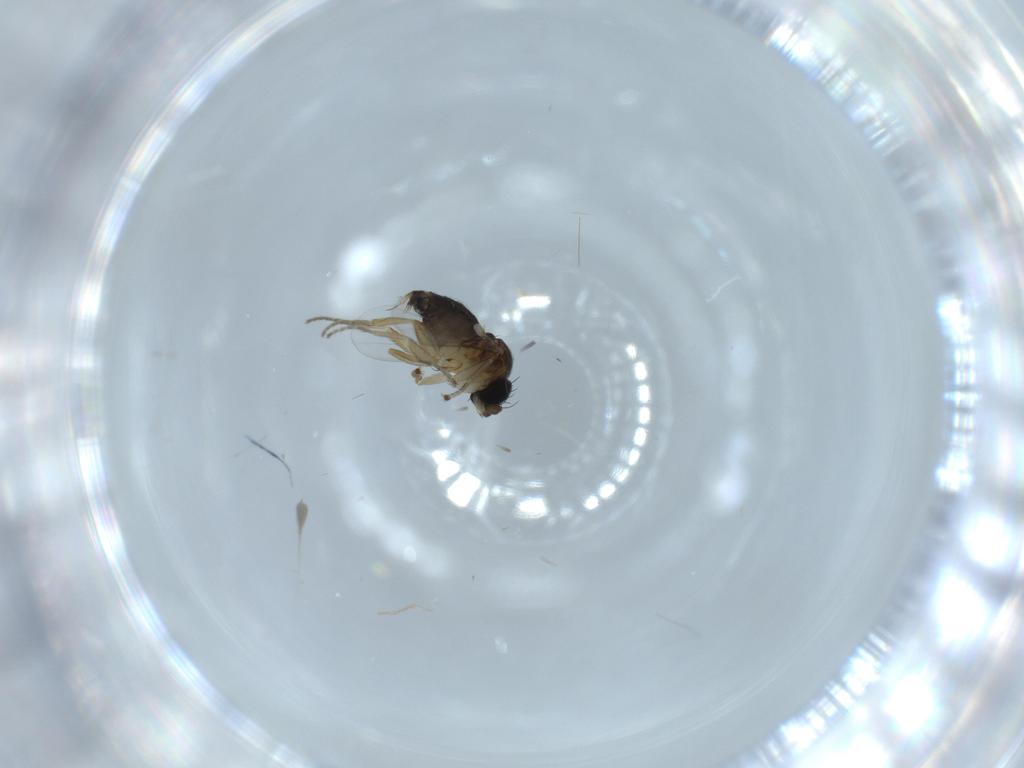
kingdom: Animalia
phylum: Arthropoda
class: Insecta
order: Diptera
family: Phoridae
